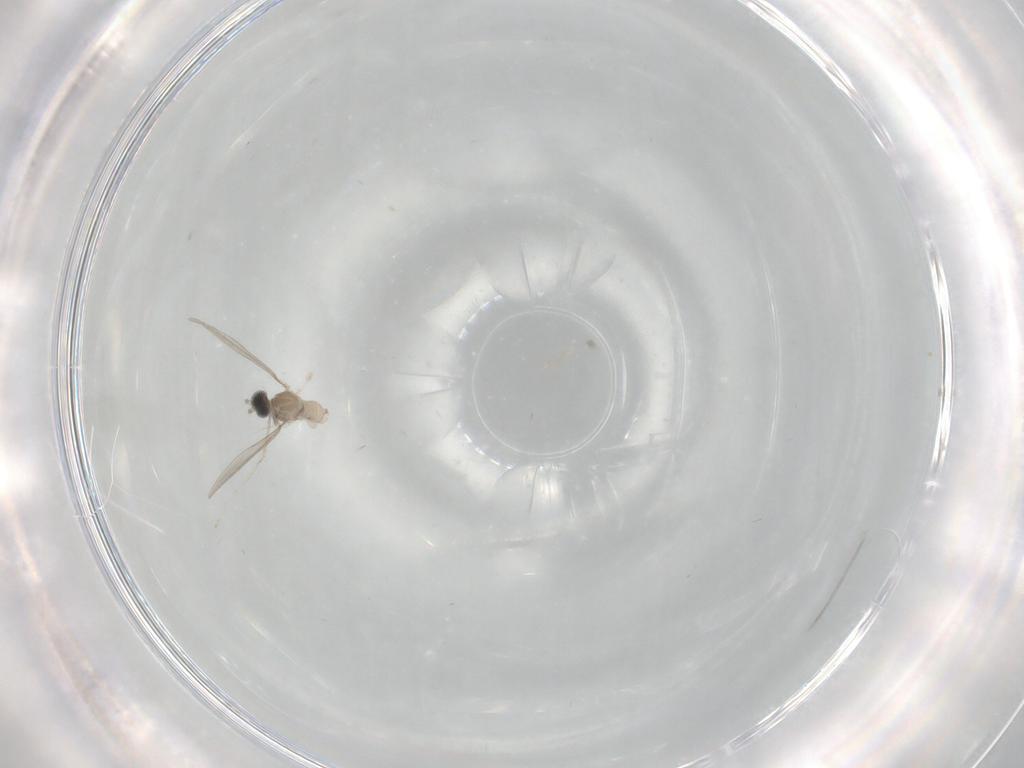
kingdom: Animalia
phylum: Arthropoda
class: Insecta
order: Diptera
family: Cecidomyiidae
